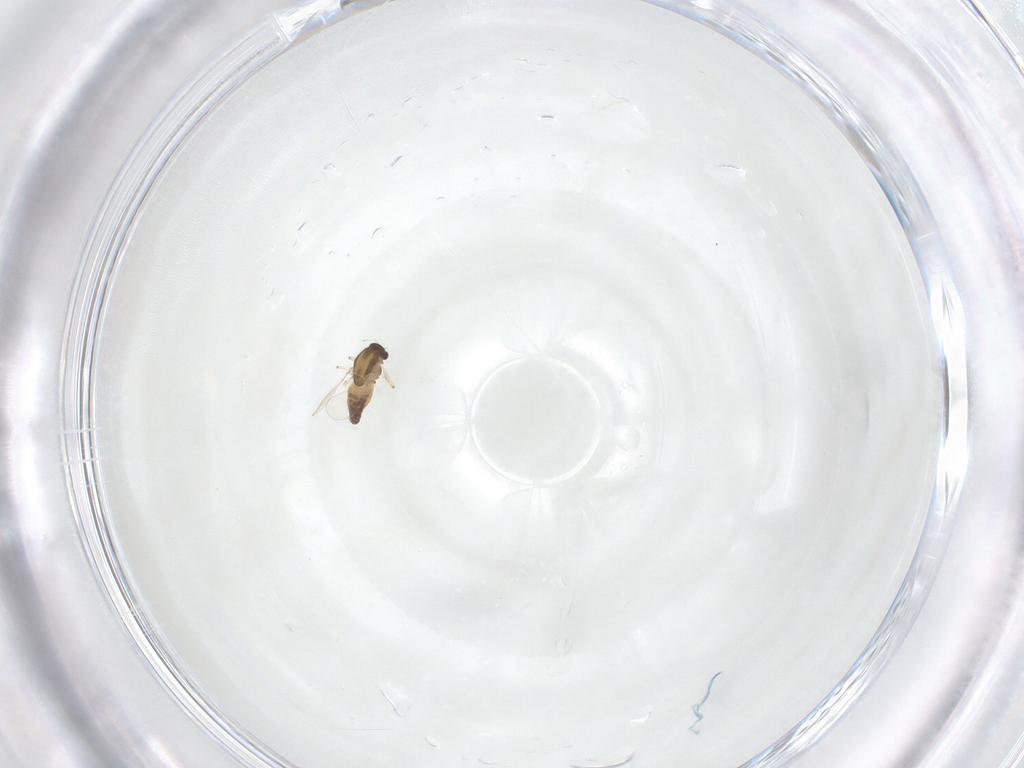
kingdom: Animalia
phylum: Arthropoda
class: Insecta
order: Diptera
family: Chironomidae
